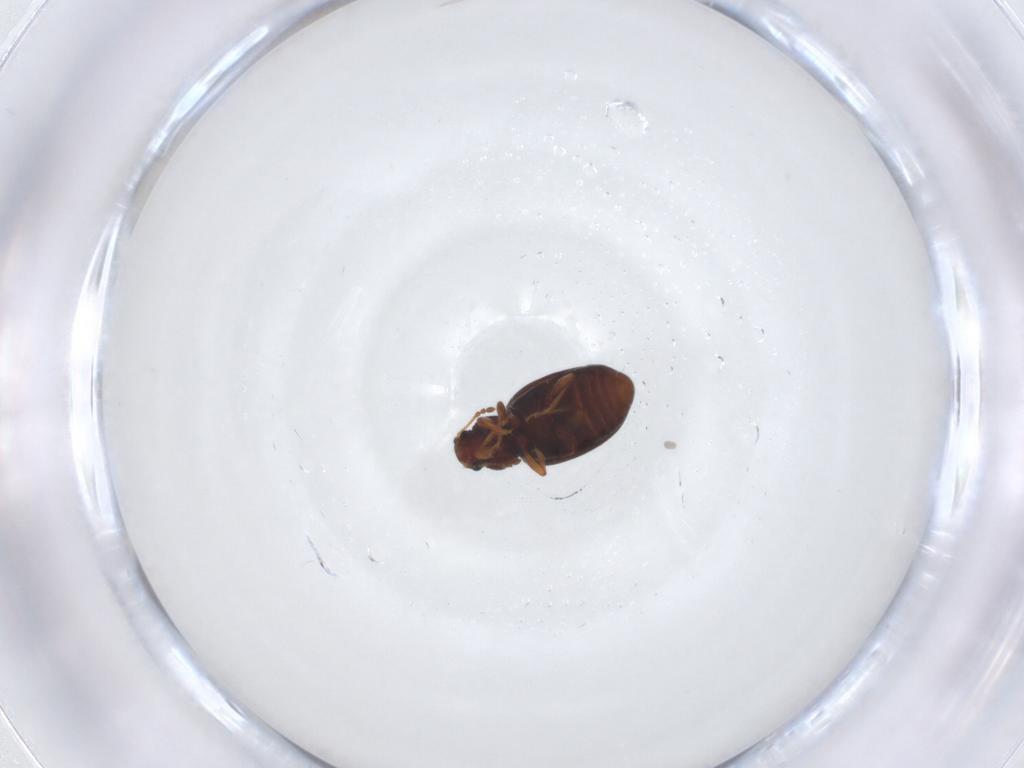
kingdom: Animalia
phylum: Arthropoda
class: Insecta
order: Coleoptera
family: Latridiidae
